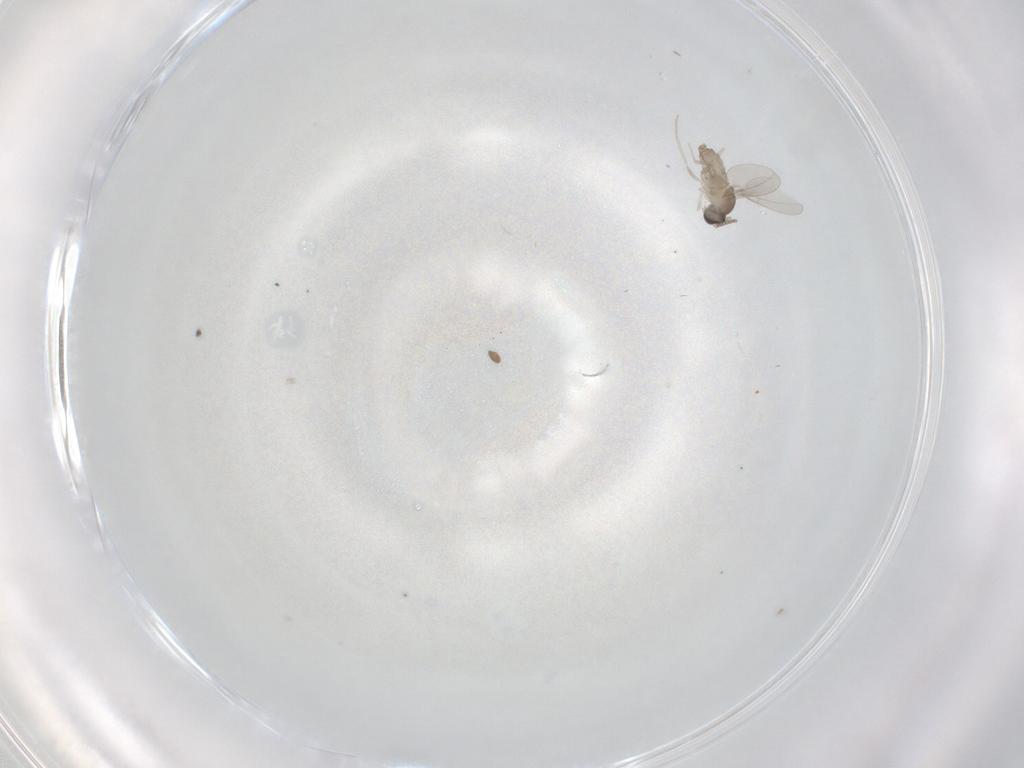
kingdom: Animalia
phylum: Arthropoda
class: Insecta
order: Diptera
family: Cecidomyiidae
